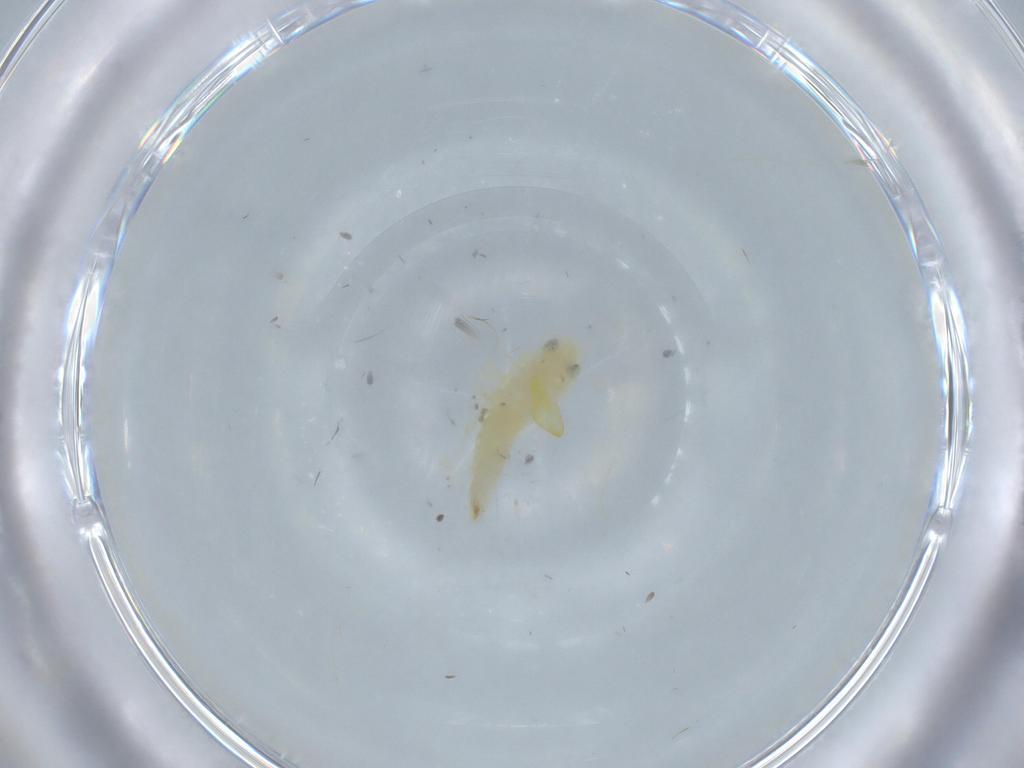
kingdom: Animalia
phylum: Arthropoda
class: Insecta
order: Hemiptera
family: Cicadellidae
